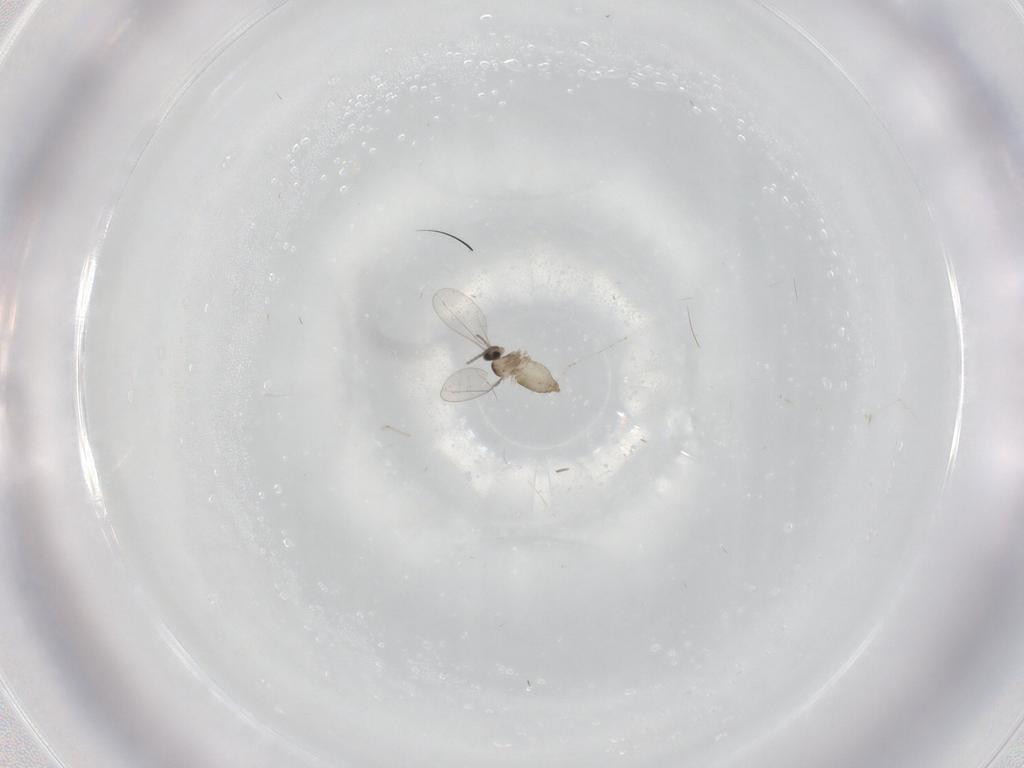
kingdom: Animalia
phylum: Arthropoda
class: Insecta
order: Diptera
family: Cecidomyiidae
